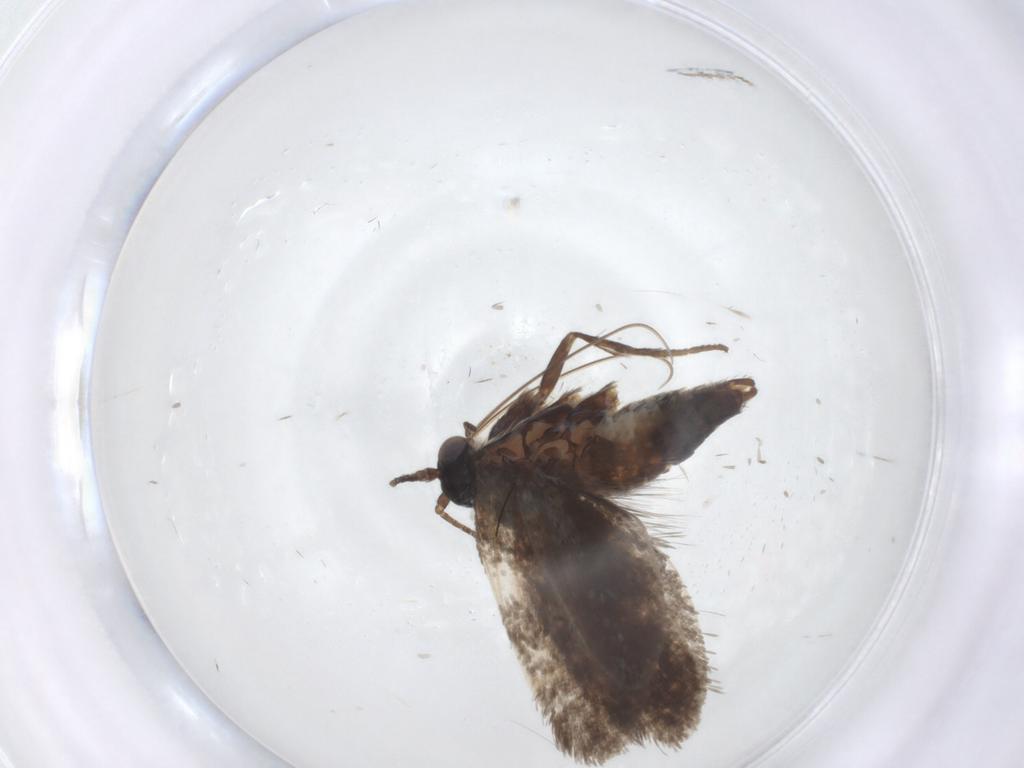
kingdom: Animalia
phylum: Arthropoda
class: Insecta
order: Lepidoptera
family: Adelidae
